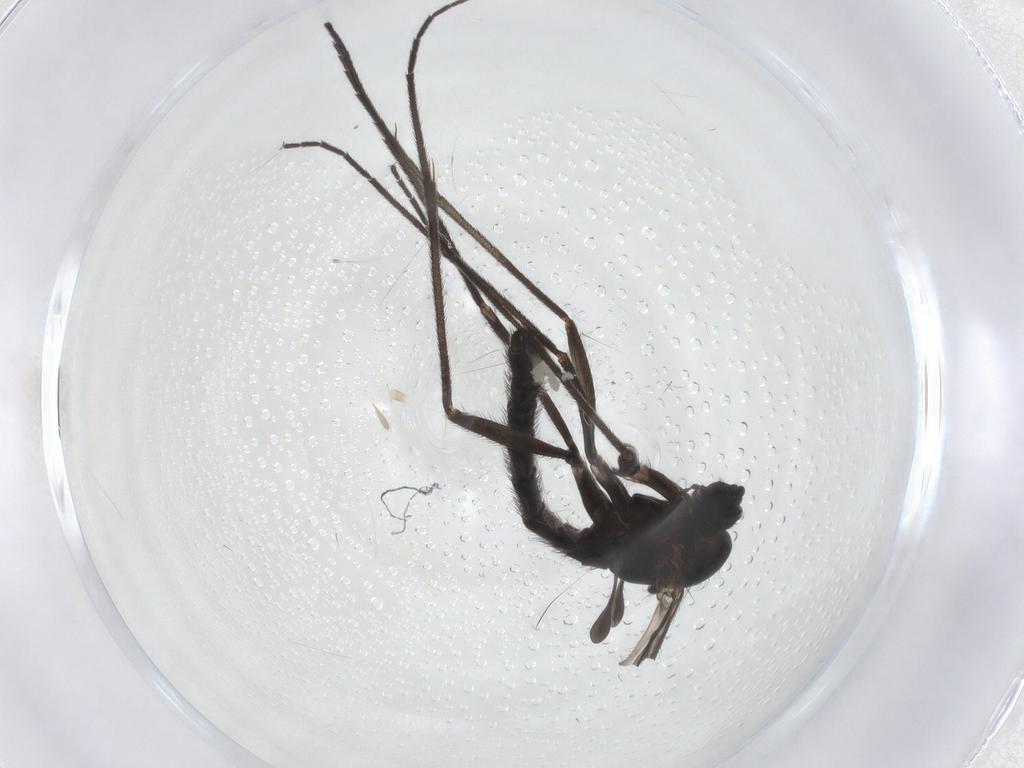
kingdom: Animalia
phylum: Arthropoda
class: Insecta
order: Diptera
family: Sciaridae
